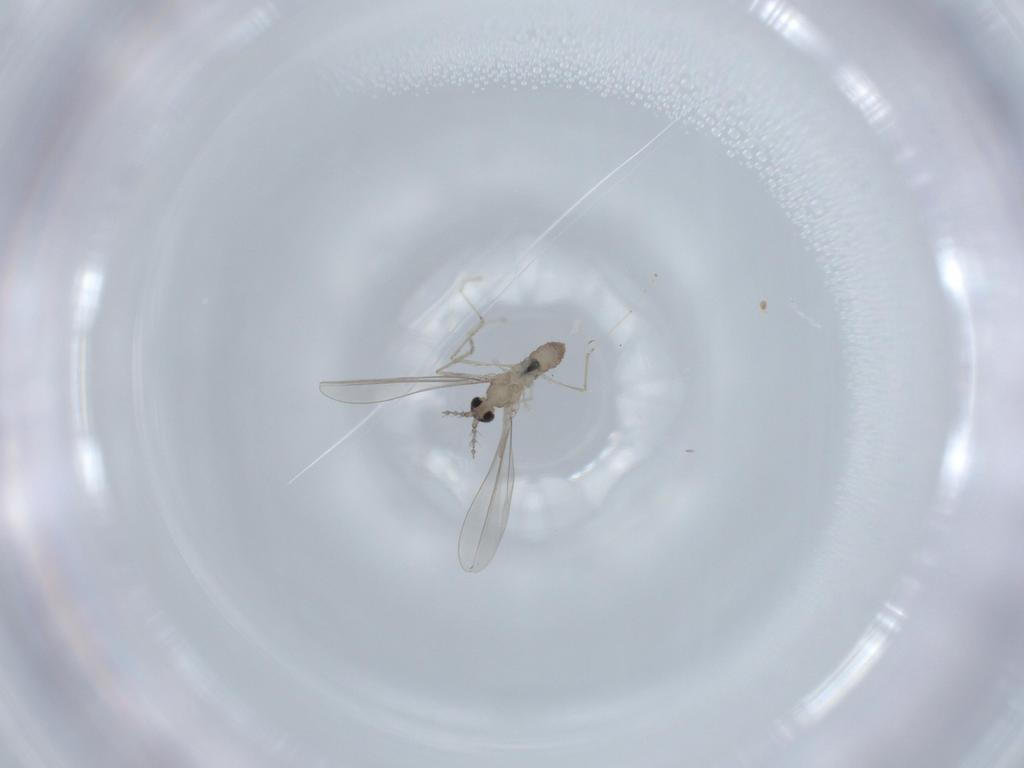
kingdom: Animalia
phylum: Arthropoda
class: Insecta
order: Diptera
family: Cecidomyiidae
